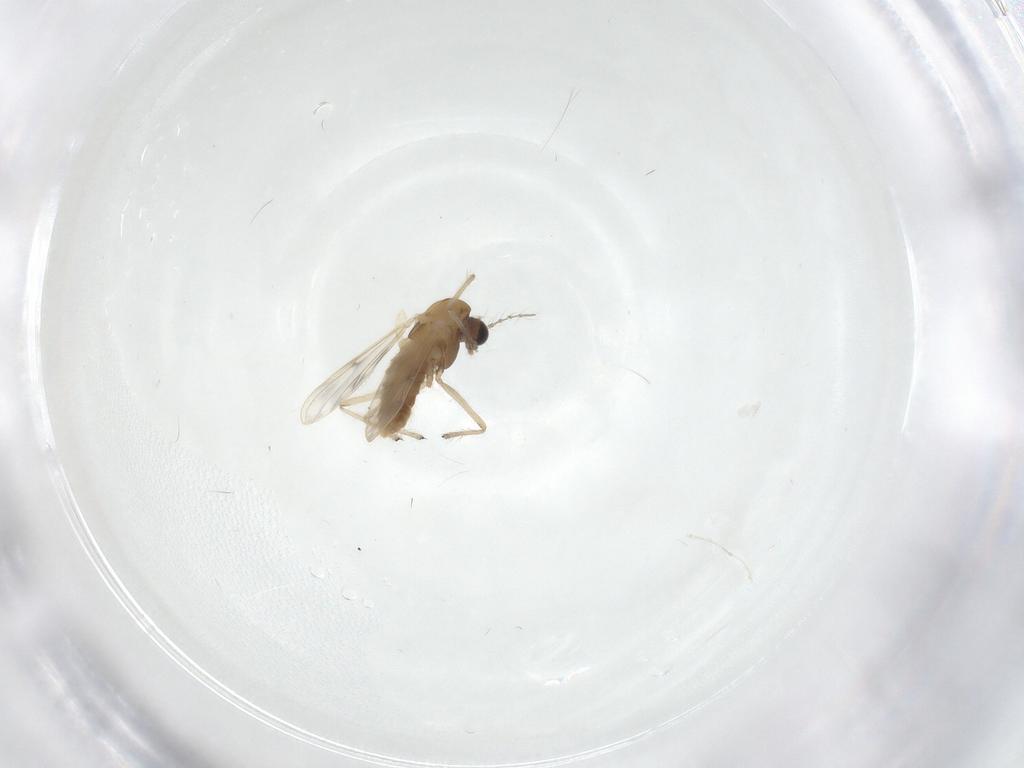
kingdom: Animalia
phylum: Arthropoda
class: Insecta
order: Diptera
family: Chironomidae
